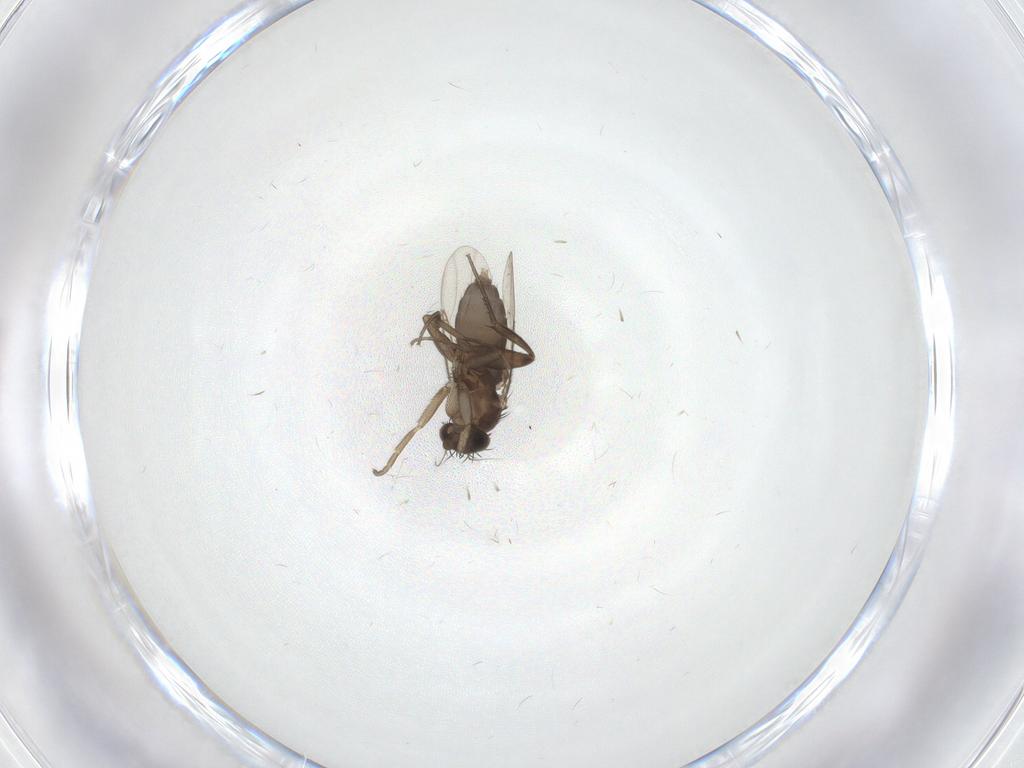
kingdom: Animalia
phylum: Arthropoda
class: Insecta
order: Diptera
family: Phoridae
